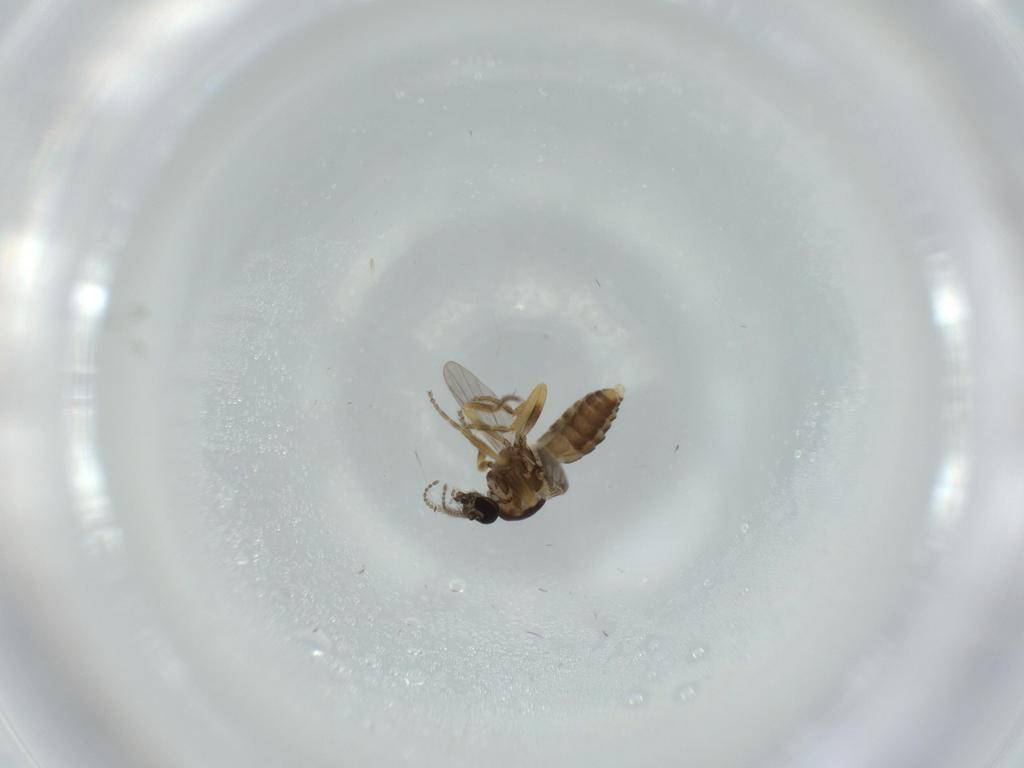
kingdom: Animalia
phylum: Arthropoda
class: Insecta
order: Diptera
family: Ceratopogonidae
